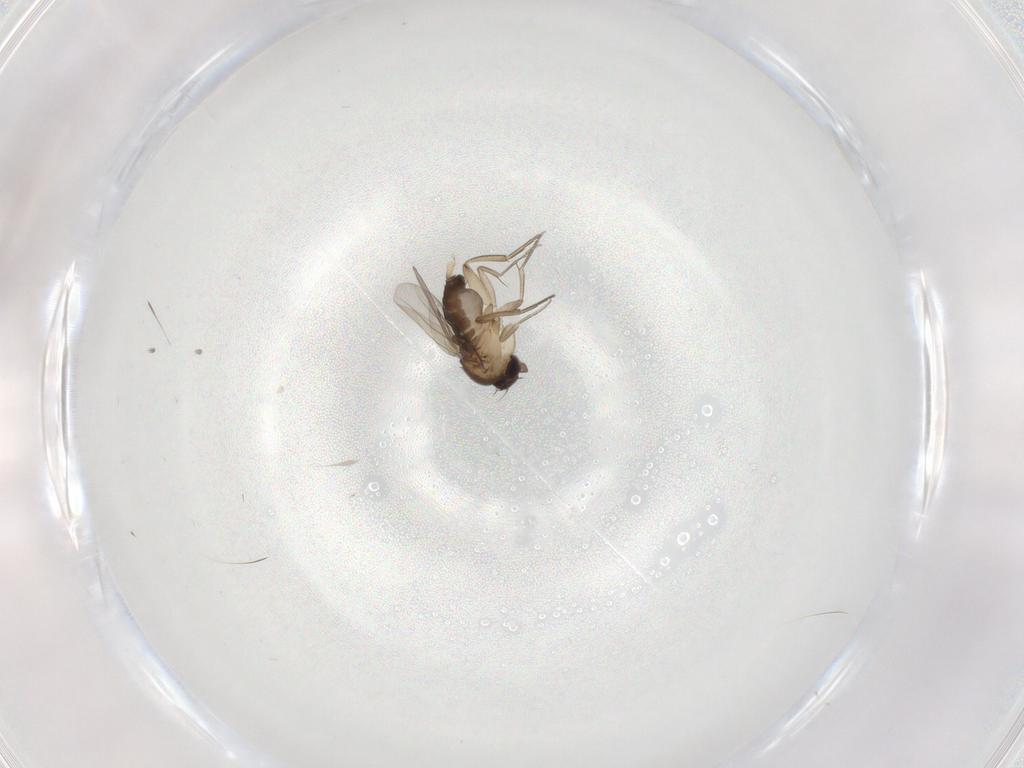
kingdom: Animalia
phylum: Arthropoda
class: Insecta
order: Diptera
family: Phoridae
